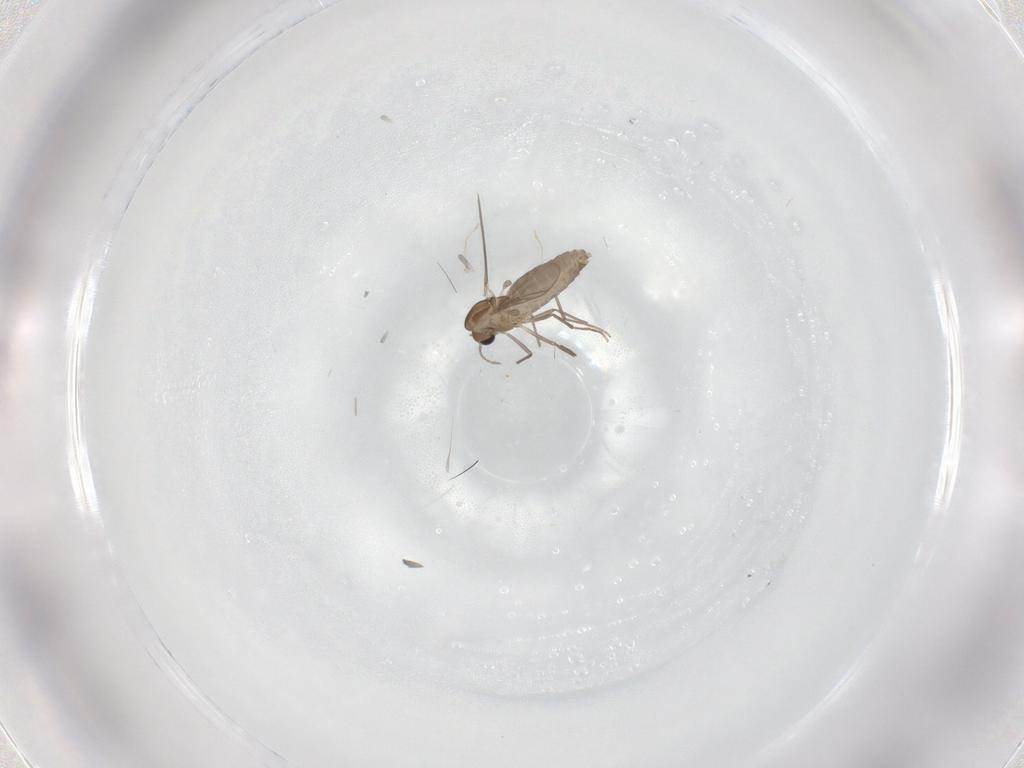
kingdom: Animalia
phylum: Arthropoda
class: Insecta
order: Diptera
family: Chironomidae
